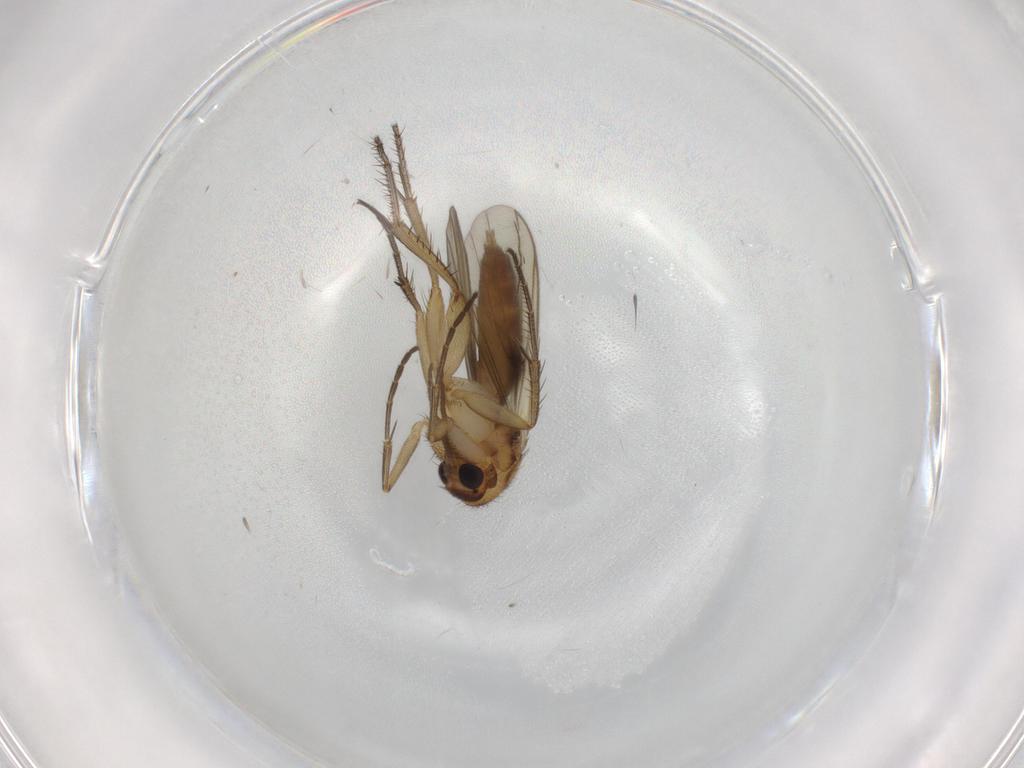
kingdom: Animalia
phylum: Arthropoda
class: Insecta
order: Diptera
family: Mycetophilidae
